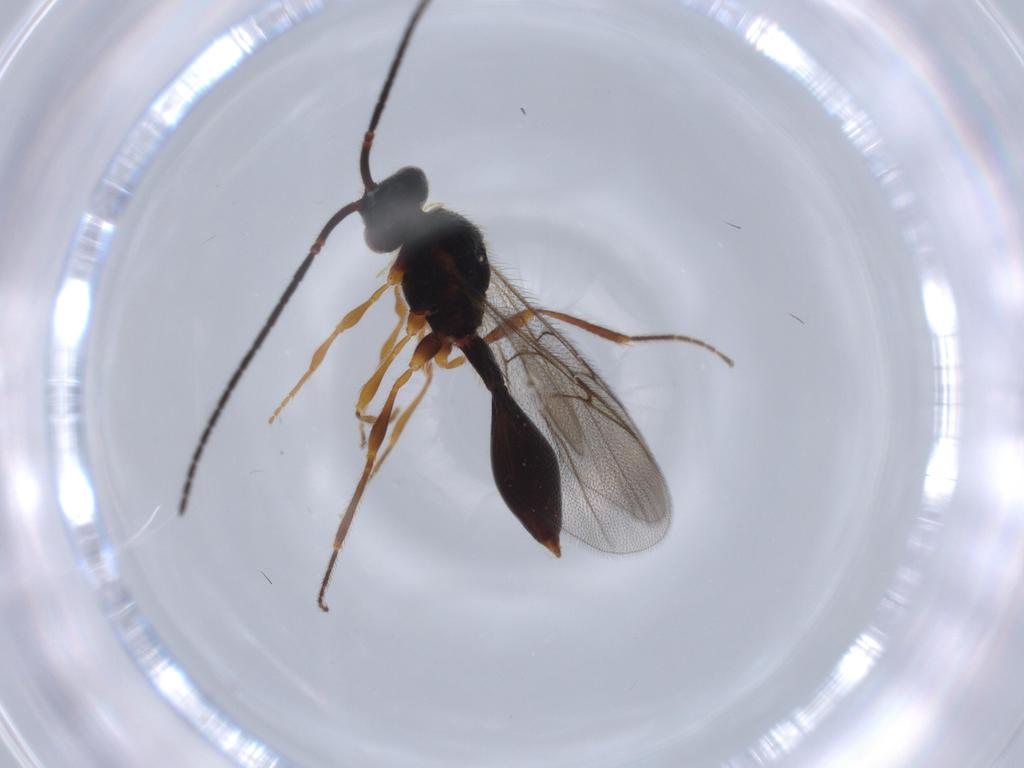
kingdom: Animalia
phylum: Arthropoda
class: Insecta
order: Hymenoptera
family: Diapriidae
